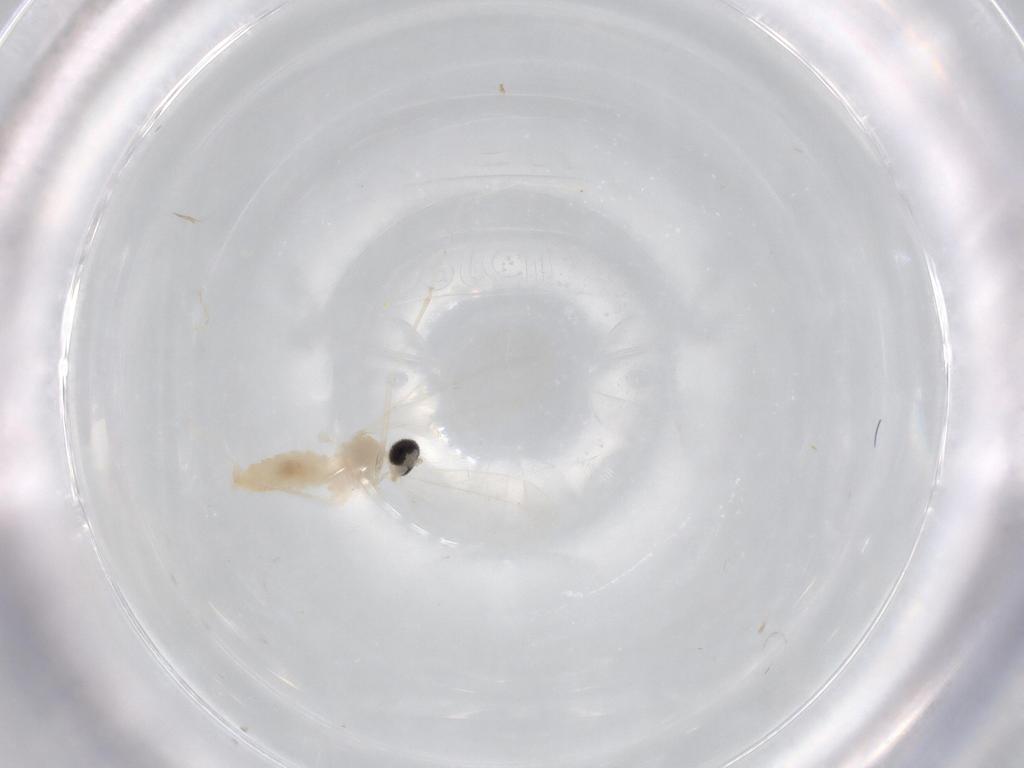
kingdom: Animalia
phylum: Arthropoda
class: Insecta
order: Diptera
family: Cecidomyiidae
